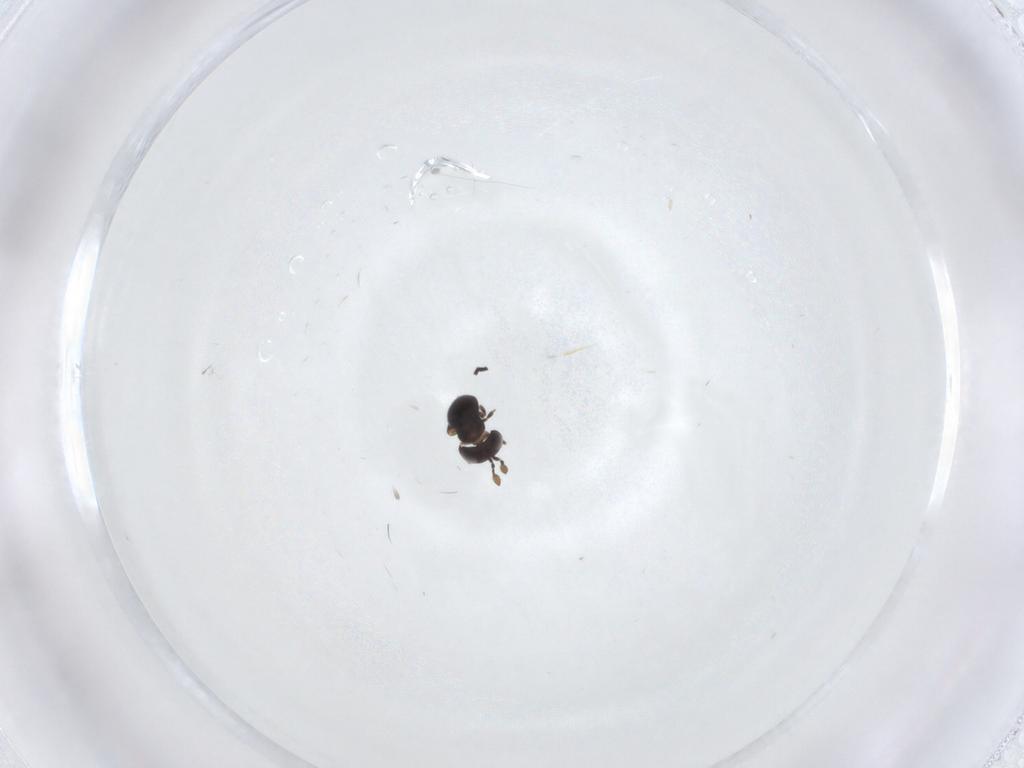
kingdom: Animalia
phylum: Arthropoda
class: Insecta
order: Hymenoptera
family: Scelionidae
